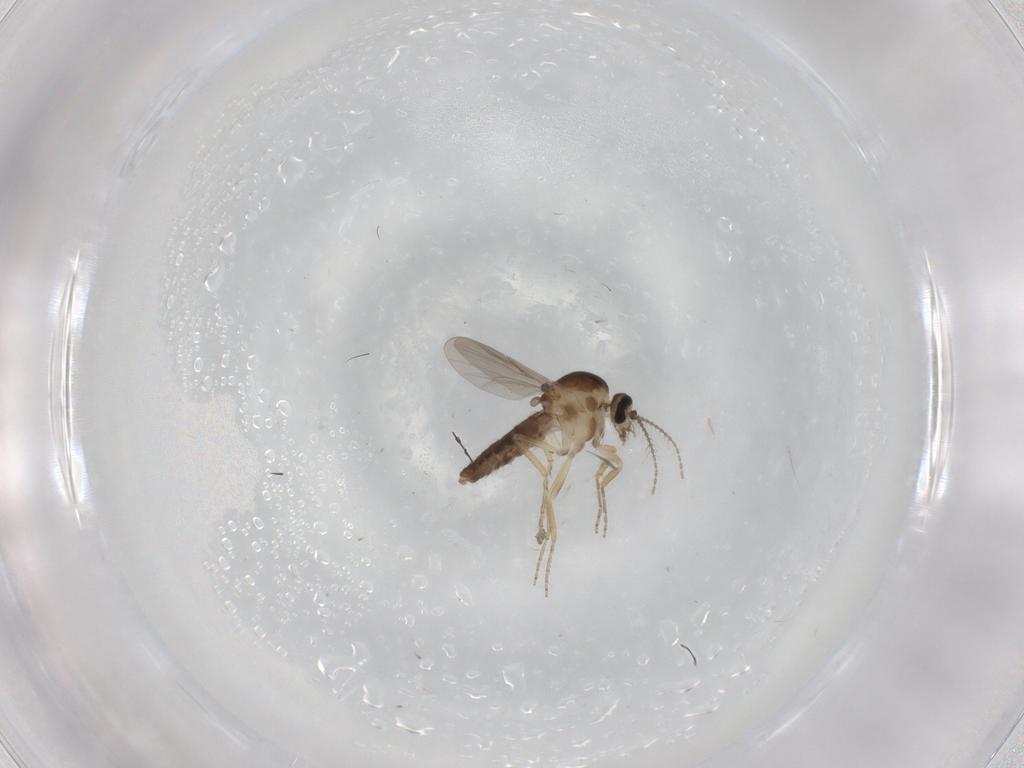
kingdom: Animalia
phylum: Arthropoda
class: Insecta
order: Diptera
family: Ceratopogonidae
